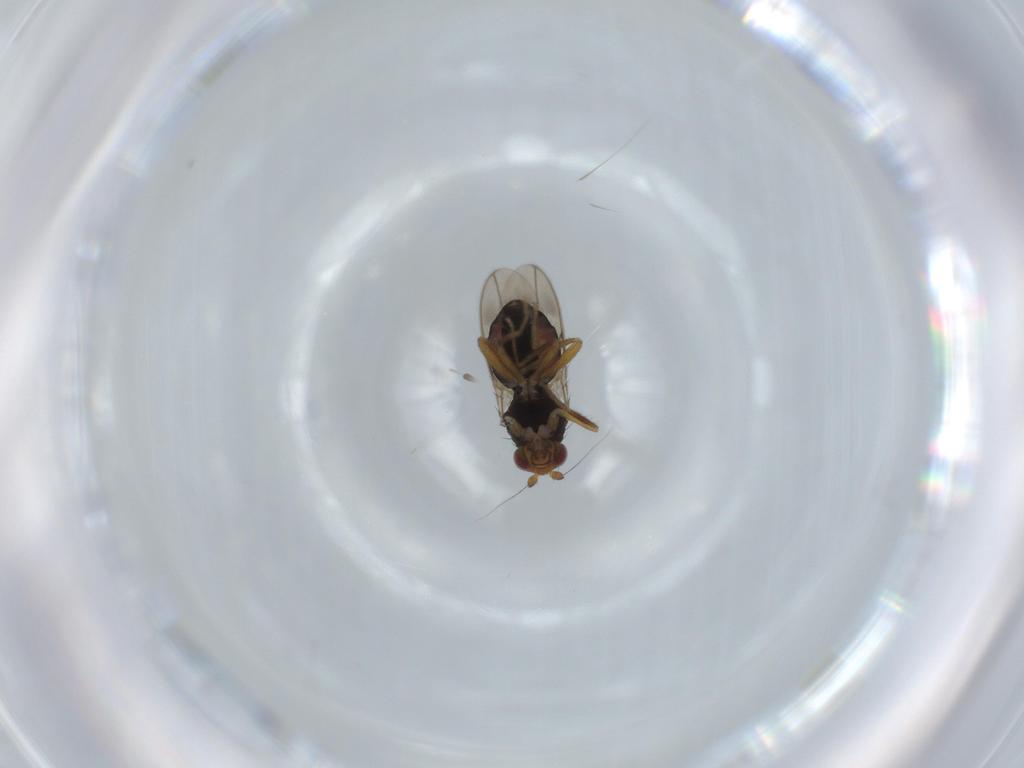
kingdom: Animalia
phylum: Arthropoda
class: Insecta
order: Diptera
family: Sphaeroceridae
